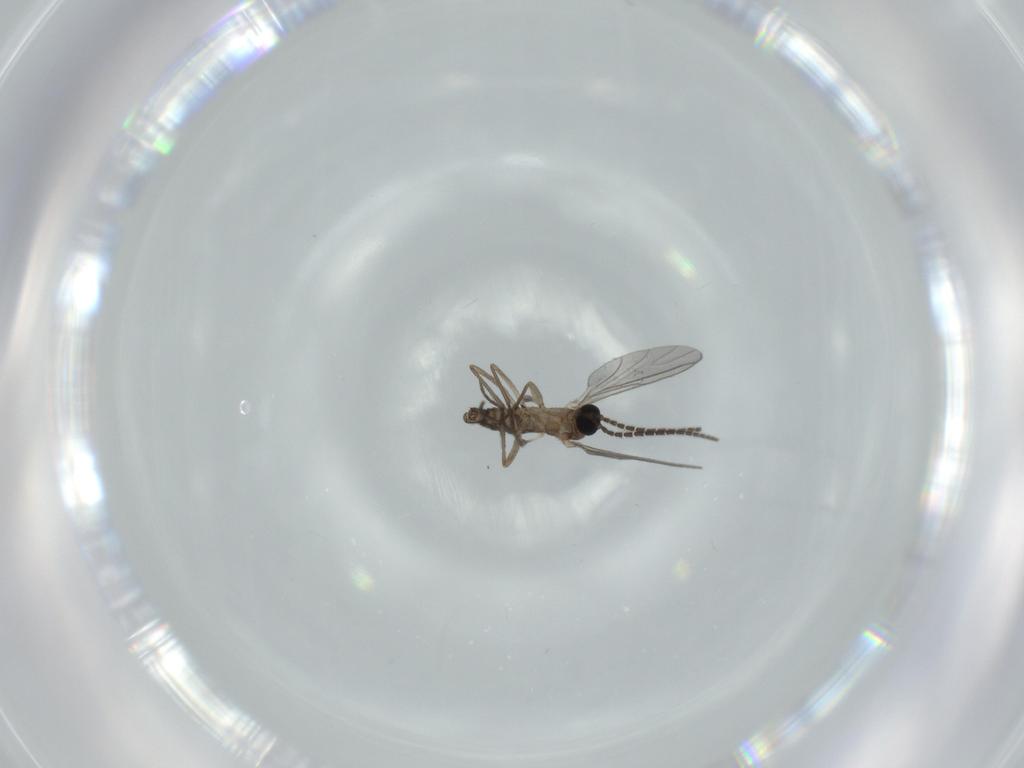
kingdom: Animalia
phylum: Arthropoda
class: Insecta
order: Diptera
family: Sciaridae
